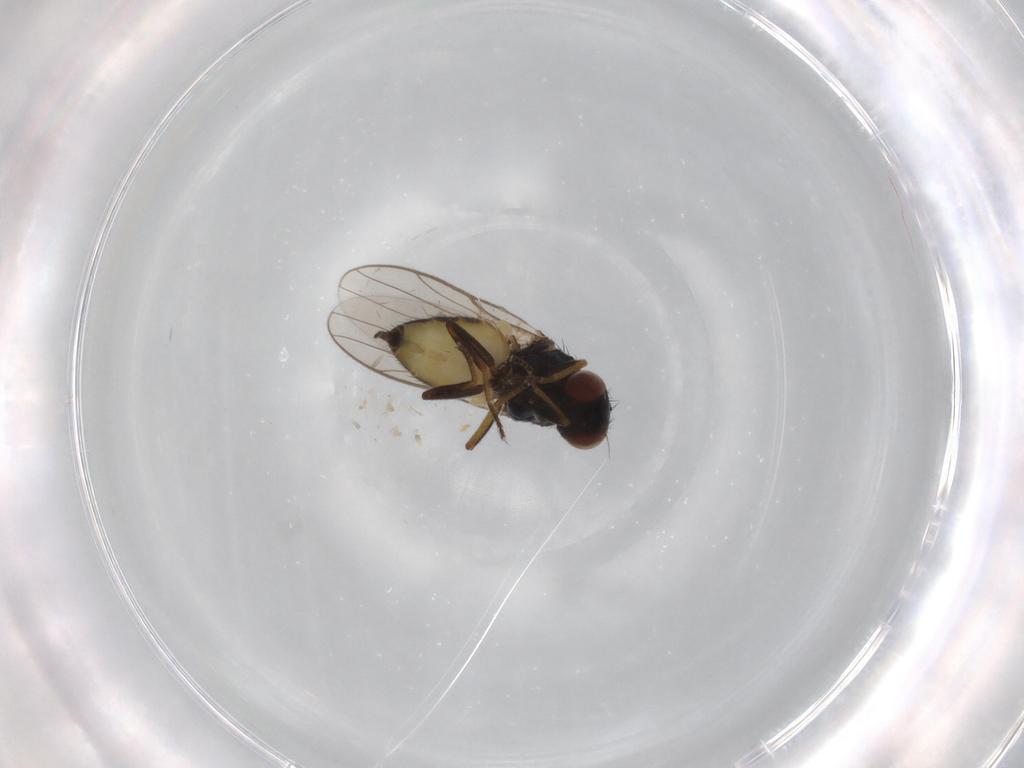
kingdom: Animalia
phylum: Arthropoda
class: Insecta
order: Diptera
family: Chloropidae
